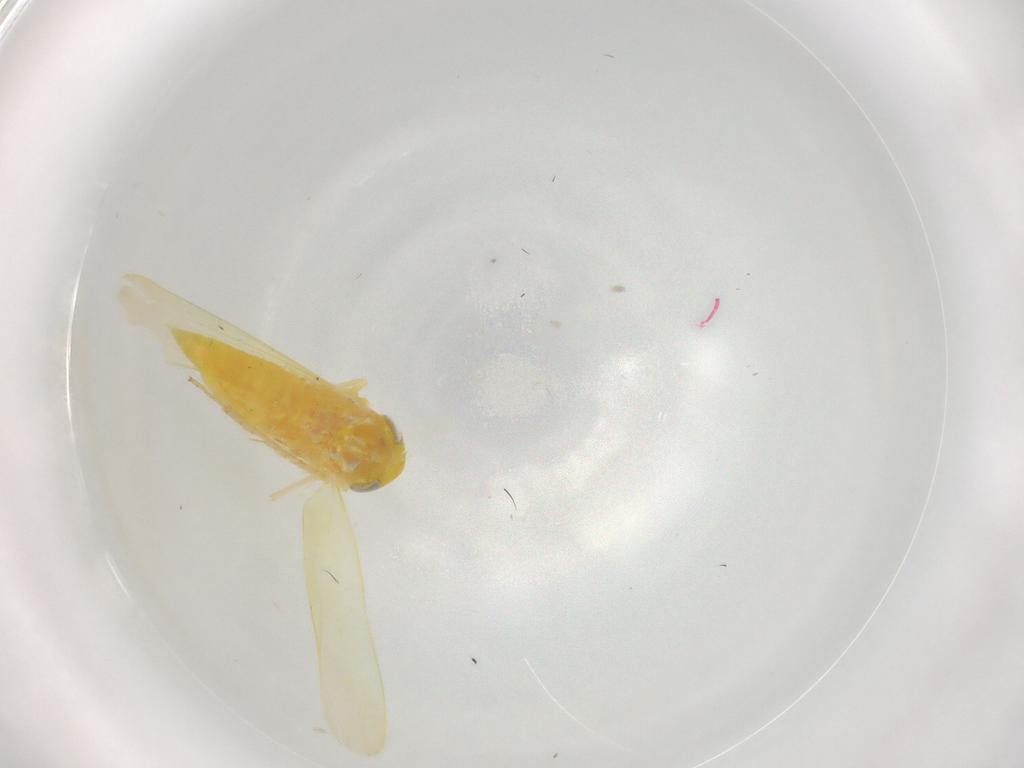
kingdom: Animalia
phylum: Arthropoda
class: Insecta
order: Hemiptera
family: Cicadellidae
